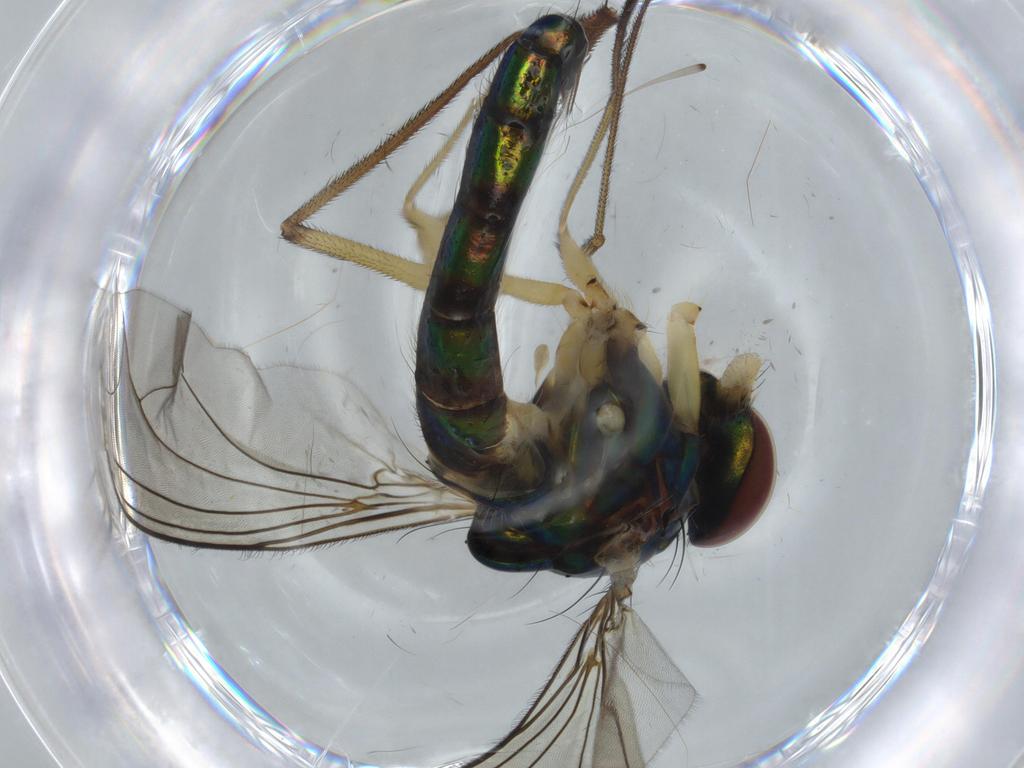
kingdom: Animalia
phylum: Arthropoda
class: Insecta
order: Diptera
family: Dolichopodidae
